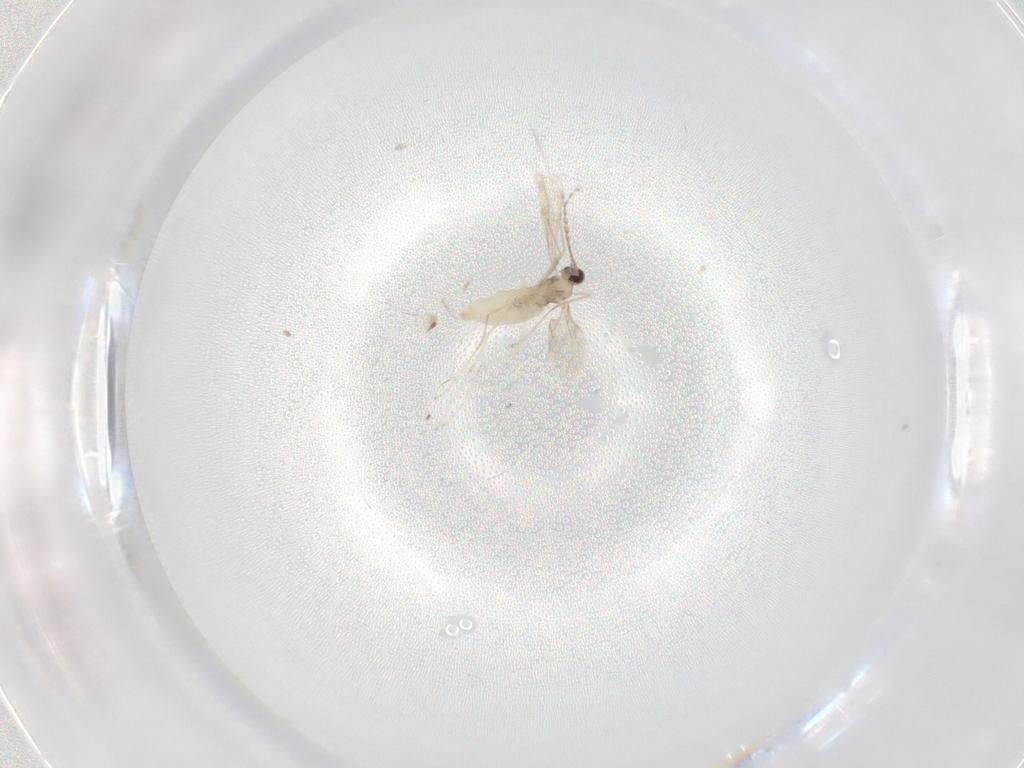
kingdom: Animalia
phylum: Arthropoda
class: Insecta
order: Diptera
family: Cecidomyiidae
